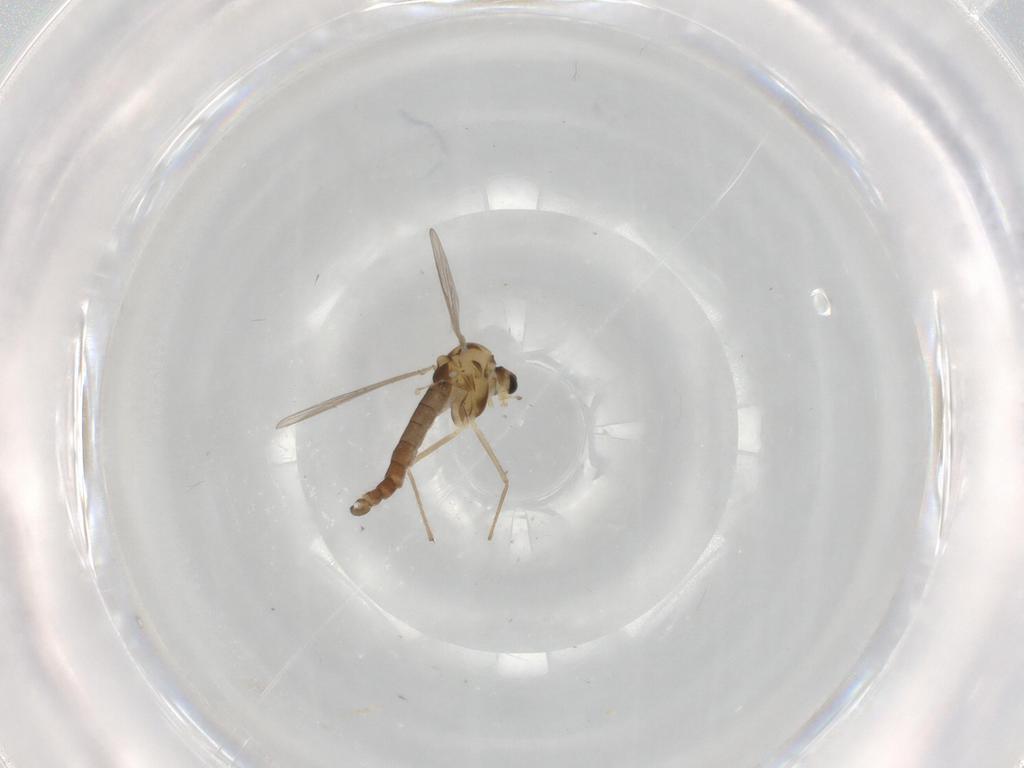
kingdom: Animalia
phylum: Arthropoda
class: Insecta
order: Diptera
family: Chironomidae
